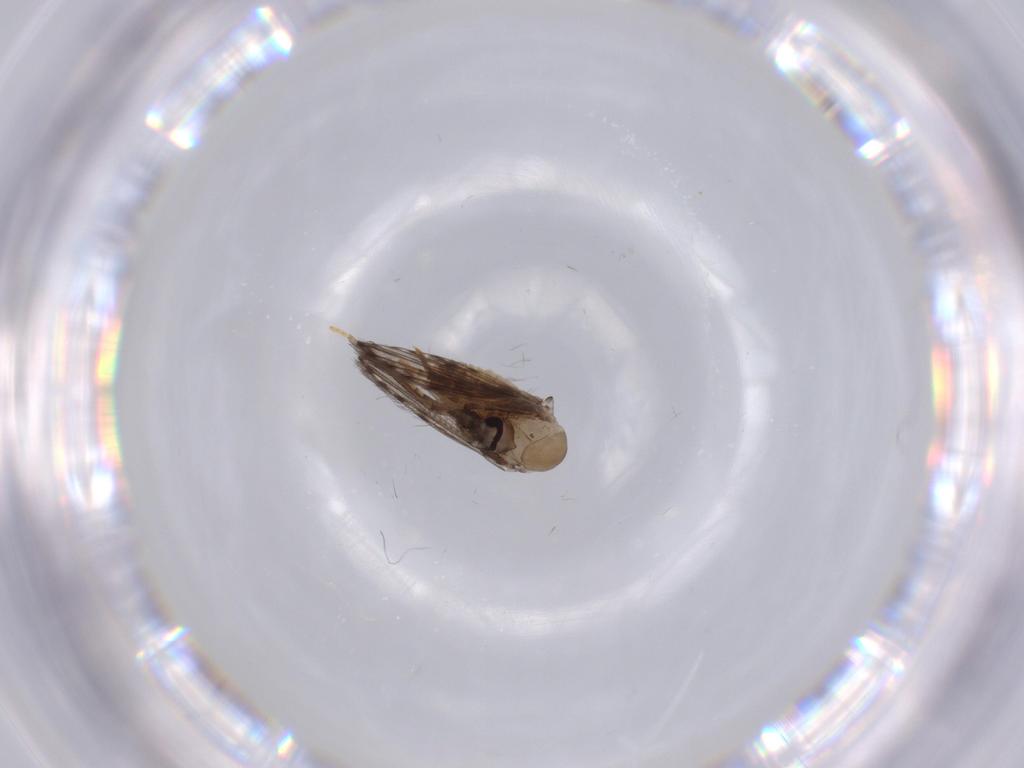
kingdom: Animalia
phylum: Arthropoda
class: Insecta
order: Diptera
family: Psychodidae
